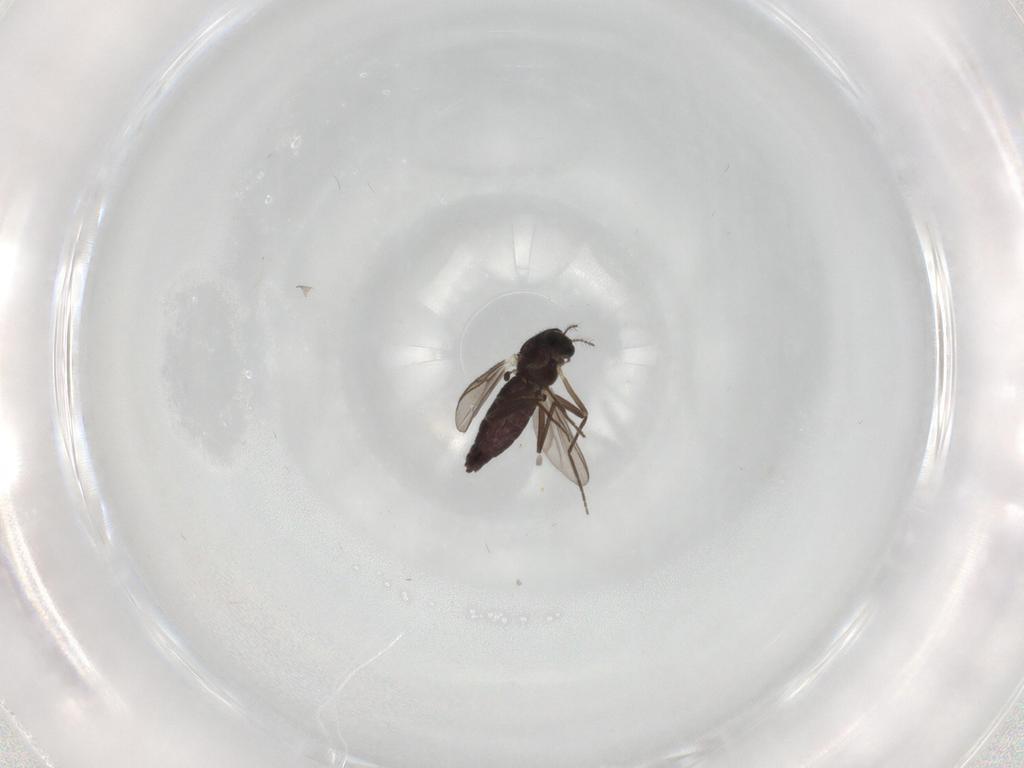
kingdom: Animalia
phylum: Arthropoda
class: Insecta
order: Diptera
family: Chironomidae
